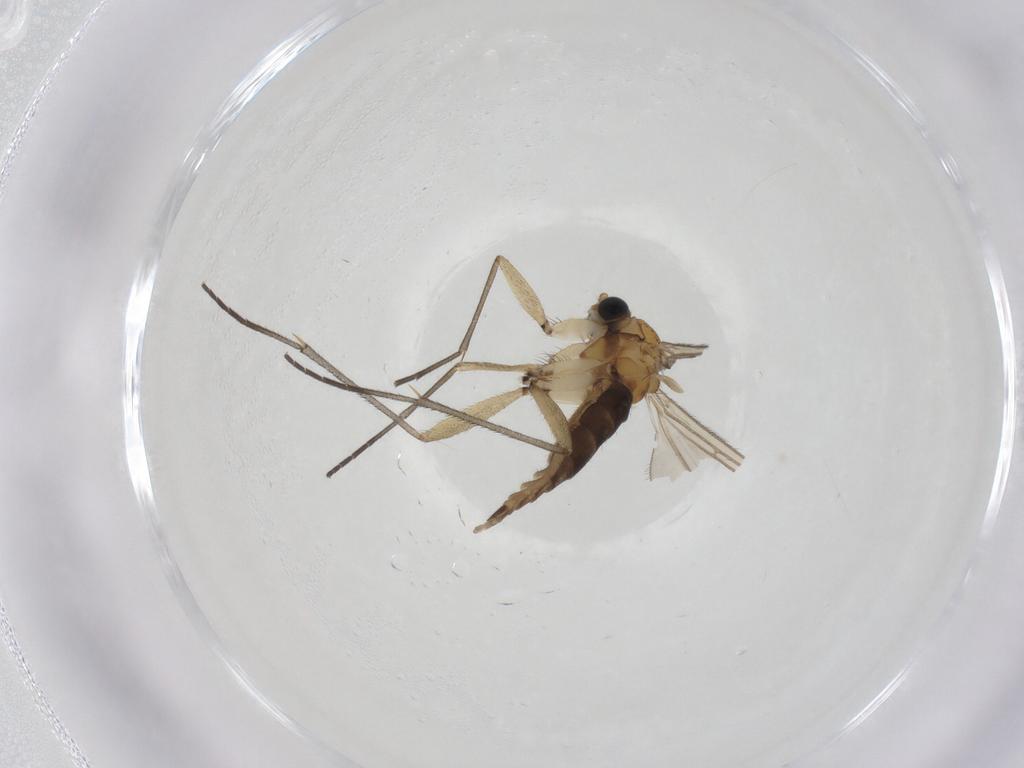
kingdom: Animalia
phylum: Arthropoda
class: Insecta
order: Diptera
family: Sciaridae
